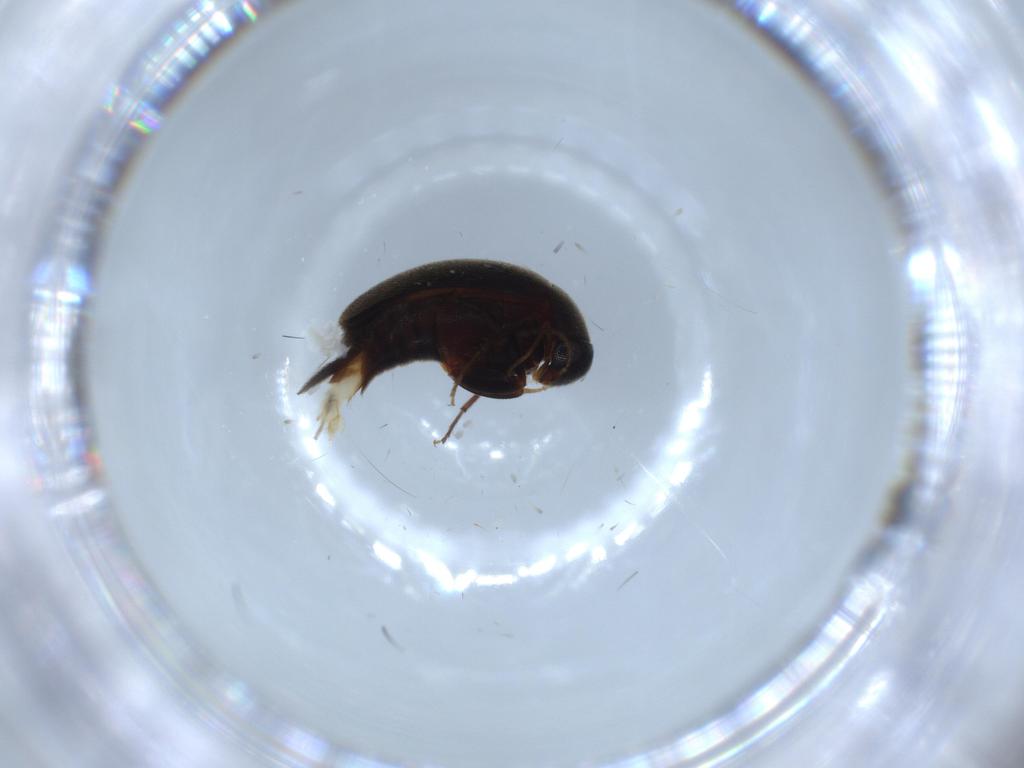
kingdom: Animalia
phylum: Arthropoda
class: Insecta
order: Coleoptera
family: Mordellidae
